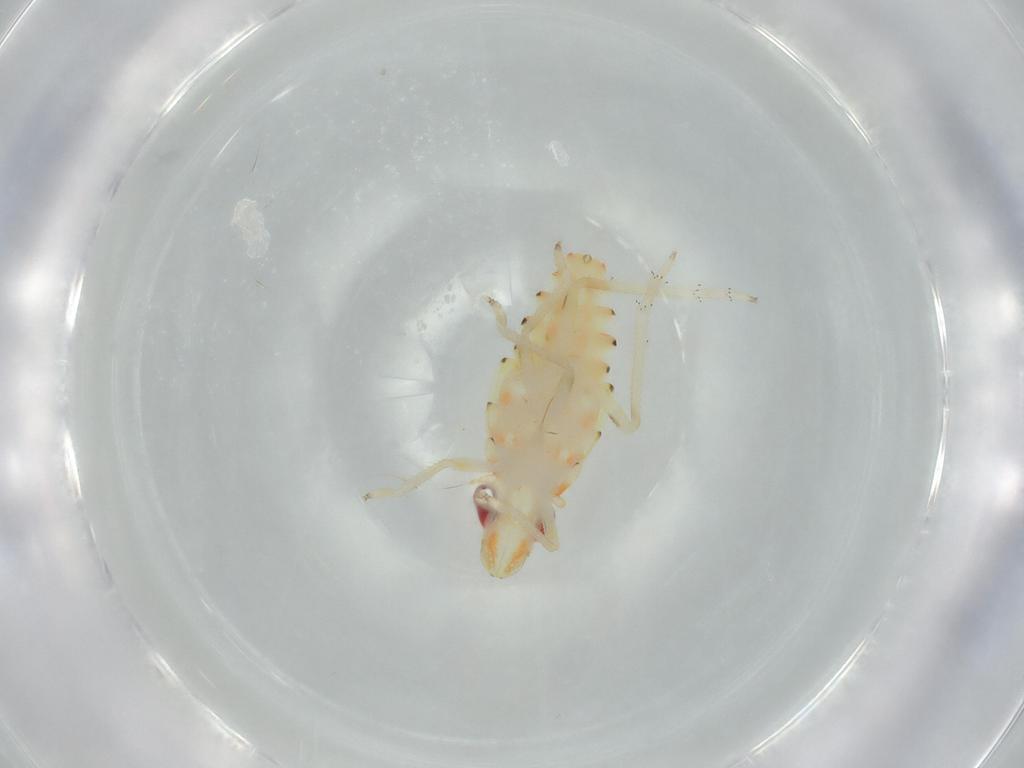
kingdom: Animalia
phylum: Arthropoda
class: Insecta
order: Hemiptera
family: Tropiduchidae
